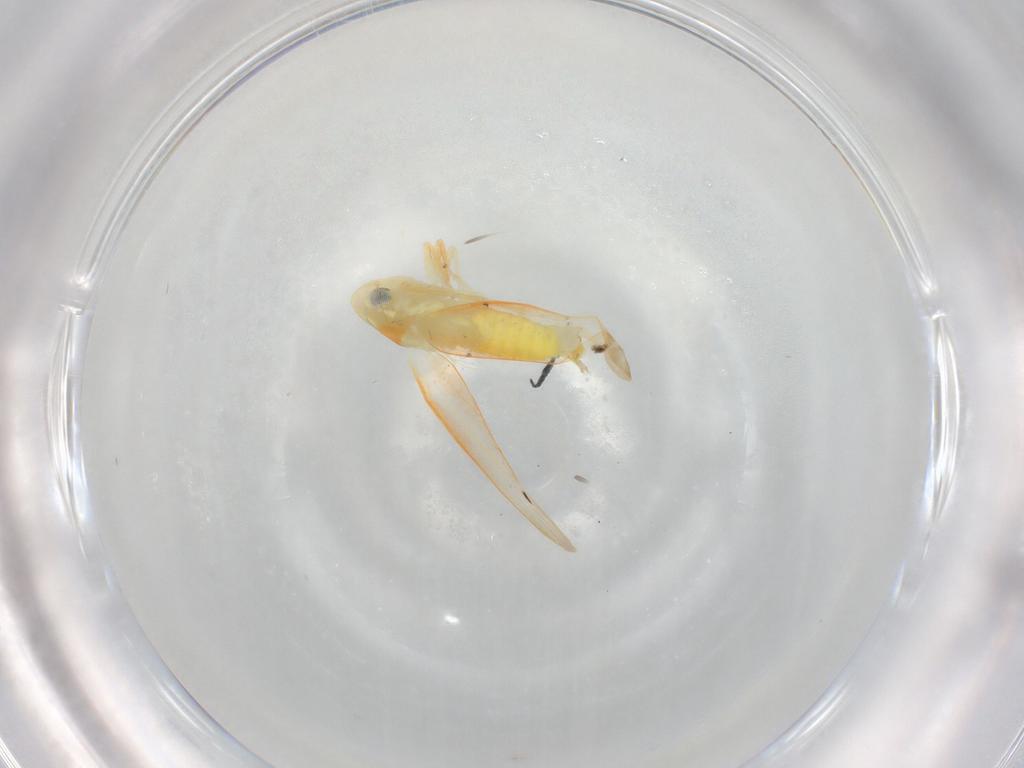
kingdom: Animalia
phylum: Arthropoda
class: Insecta
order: Hemiptera
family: Cicadellidae
